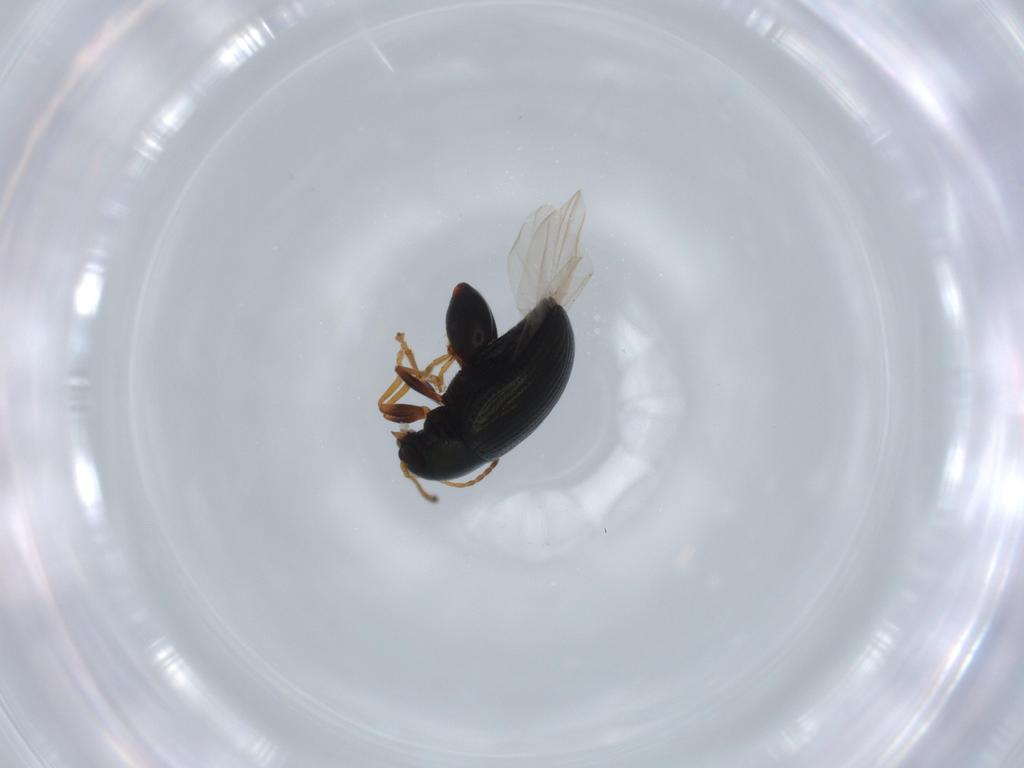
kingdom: Animalia
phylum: Arthropoda
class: Insecta
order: Coleoptera
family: Chrysomelidae
